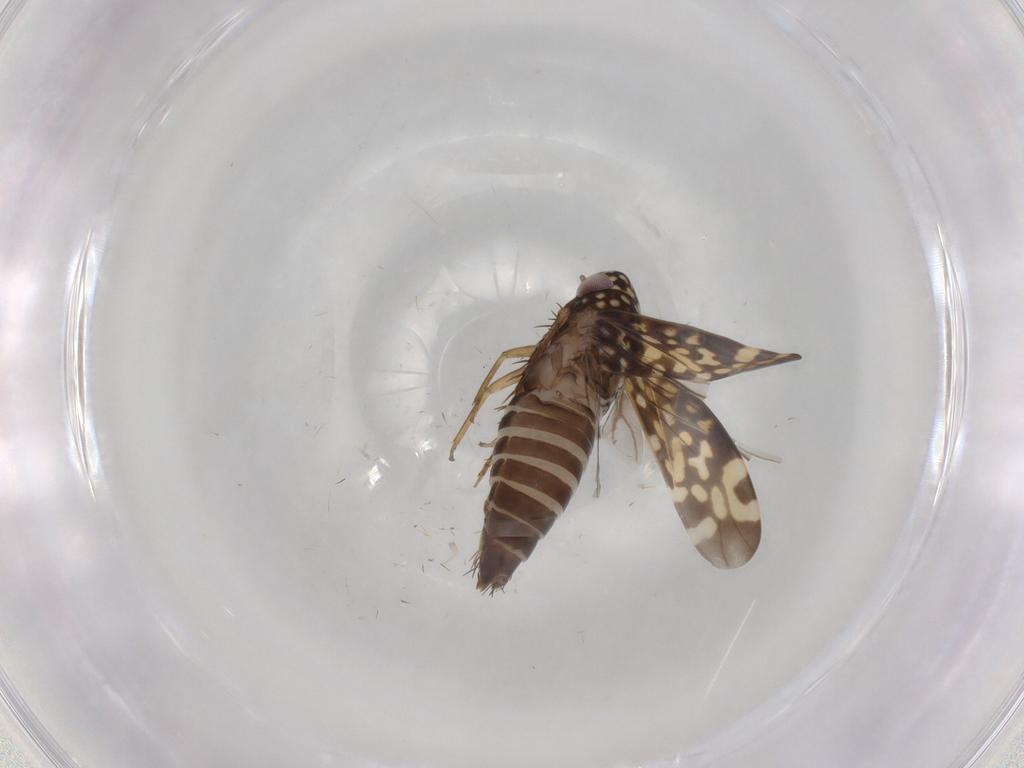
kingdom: Animalia
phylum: Arthropoda
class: Insecta
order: Hemiptera
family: Cicadellidae
